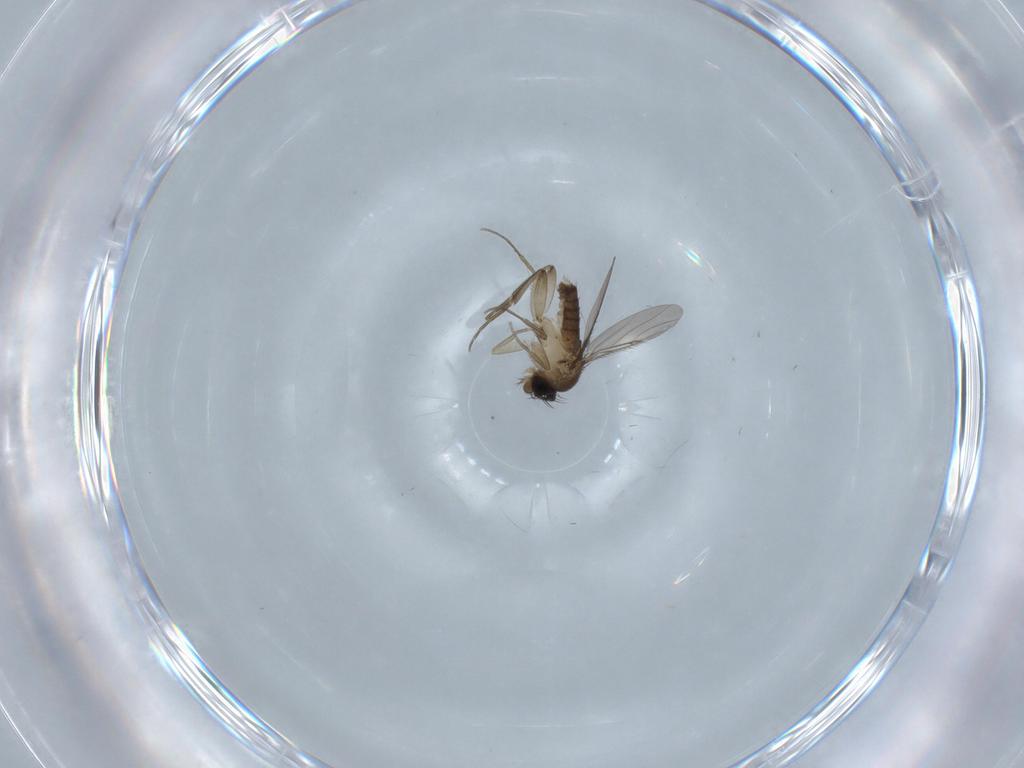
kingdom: Animalia
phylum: Arthropoda
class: Insecta
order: Diptera
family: Phoridae
